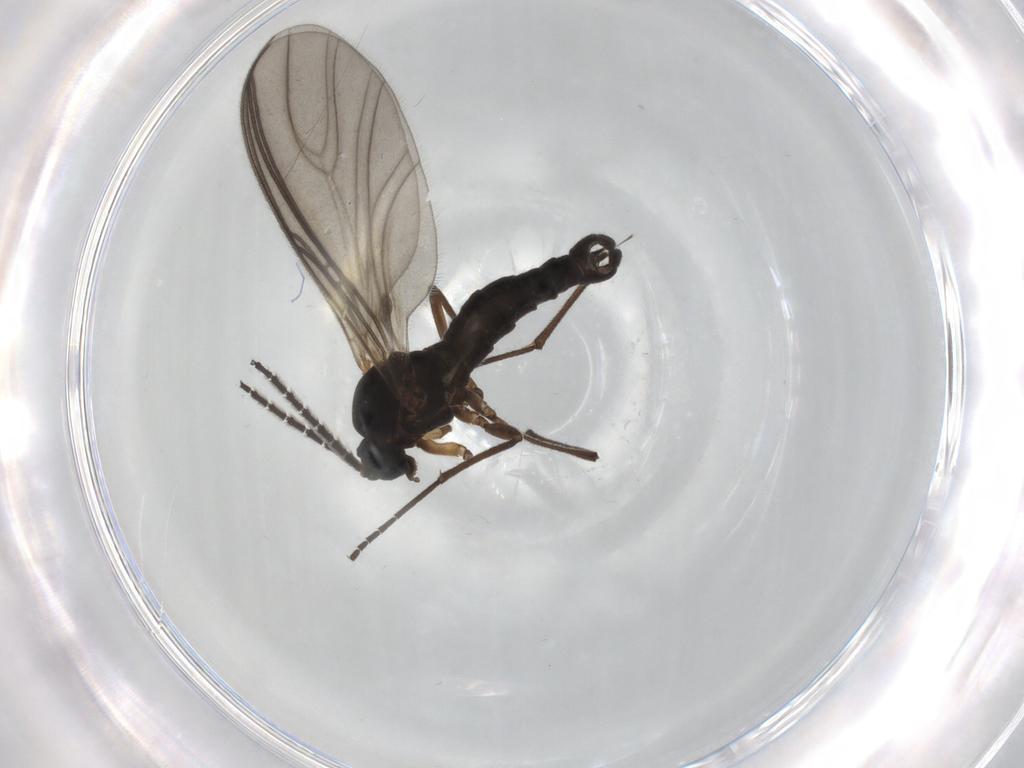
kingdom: Animalia
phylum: Arthropoda
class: Insecta
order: Diptera
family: Sciaridae
